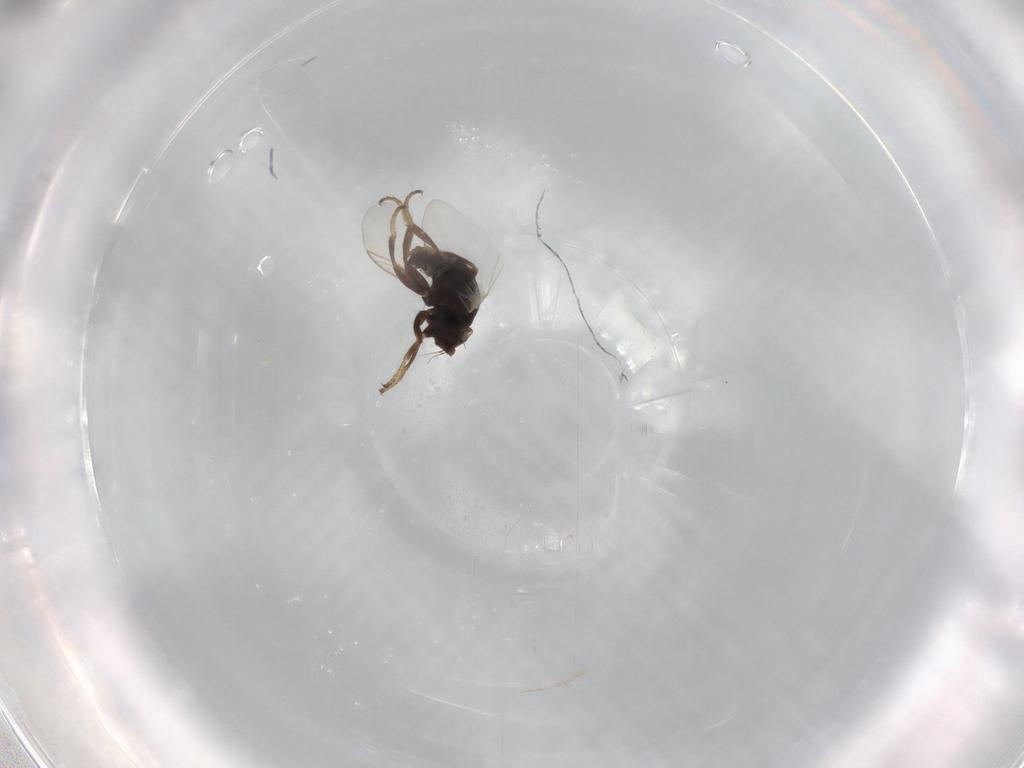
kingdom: Animalia
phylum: Arthropoda
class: Insecta
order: Diptera
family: Agromyzidae
